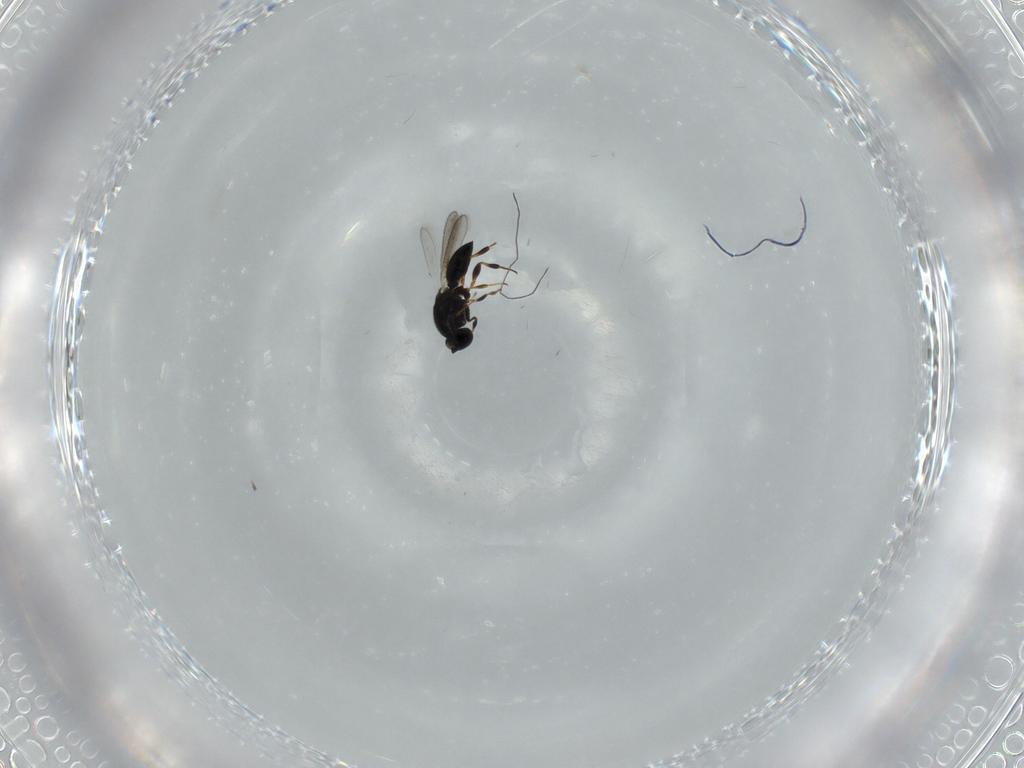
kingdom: Animalia
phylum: Arthropoda
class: Insecta
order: Hymenoptera
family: Platygastridae
